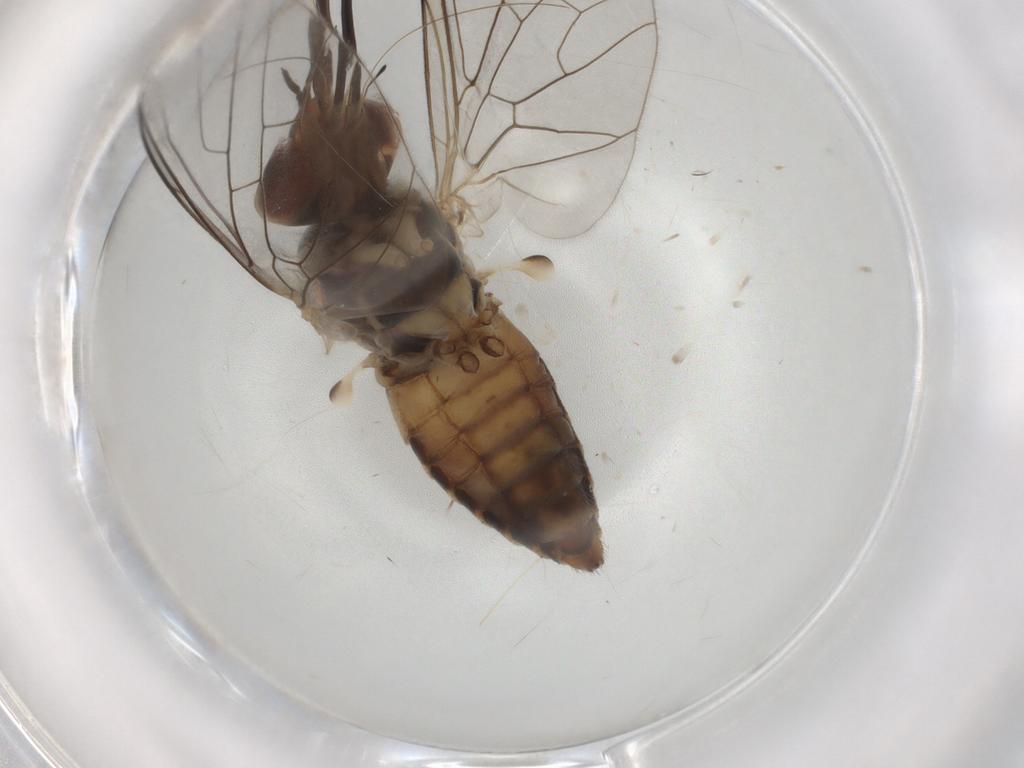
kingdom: Animalia
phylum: Arthropoda
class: Insecta
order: Diptera
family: Bombyliidae
